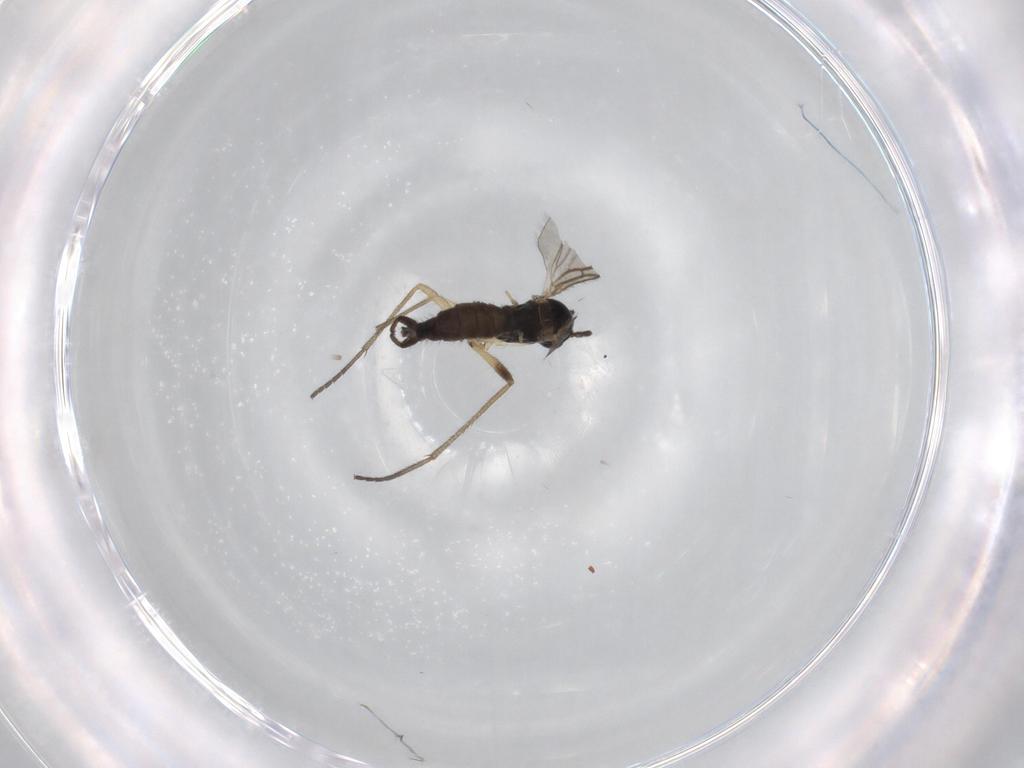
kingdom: Animalia
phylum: Arthropoda
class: Insecta
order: Diptera
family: Sciaridae
